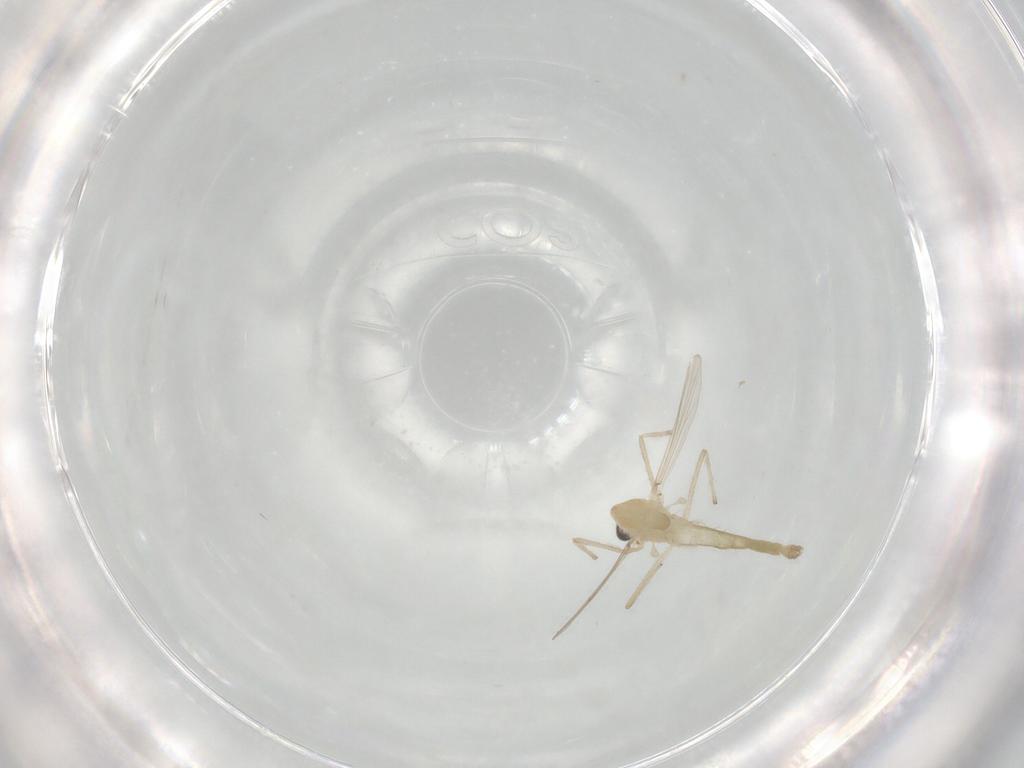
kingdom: Animalia
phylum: Arthropoda
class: Insecta
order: Diptera
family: Chironomidae
